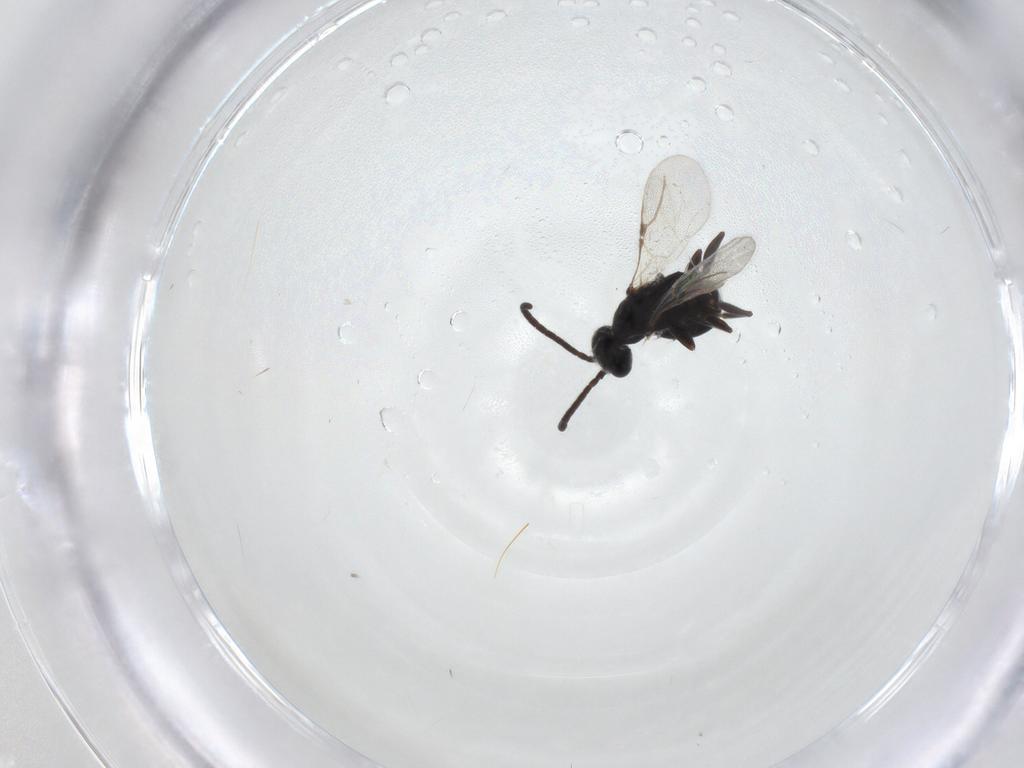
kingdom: Animalia
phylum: Arthropoda
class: Insecta
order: Hymenoptera
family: Bethylidae
